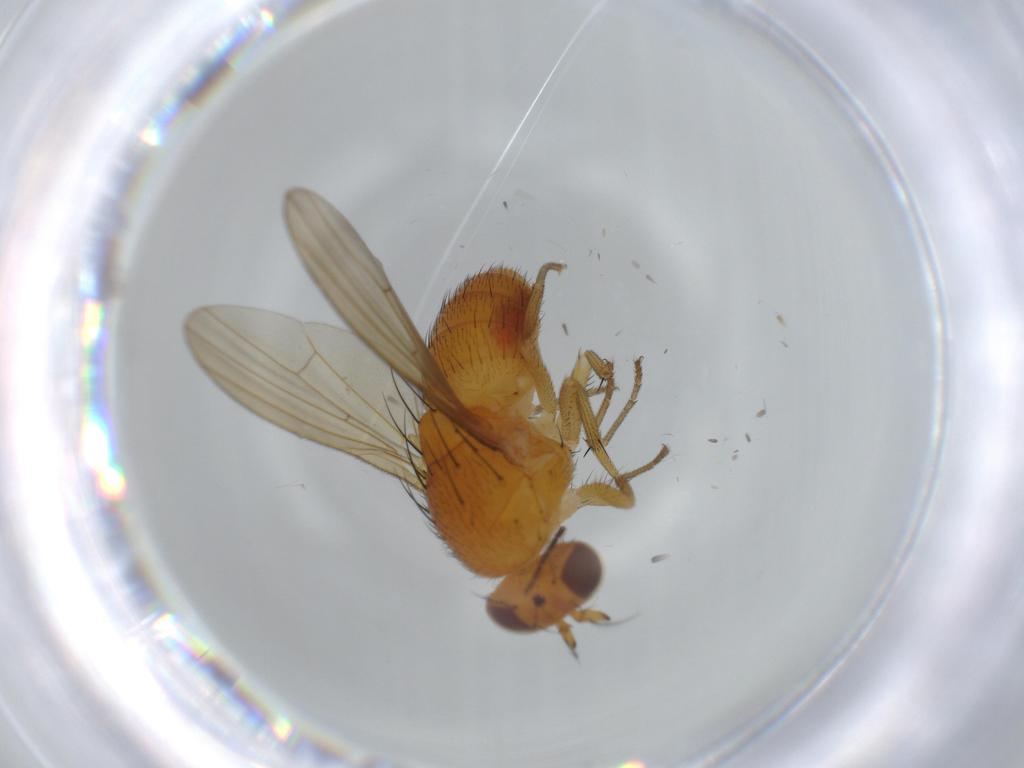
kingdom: Animalia
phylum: Arthropoda
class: Insecta
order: Diptera
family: Lauxaniidae
